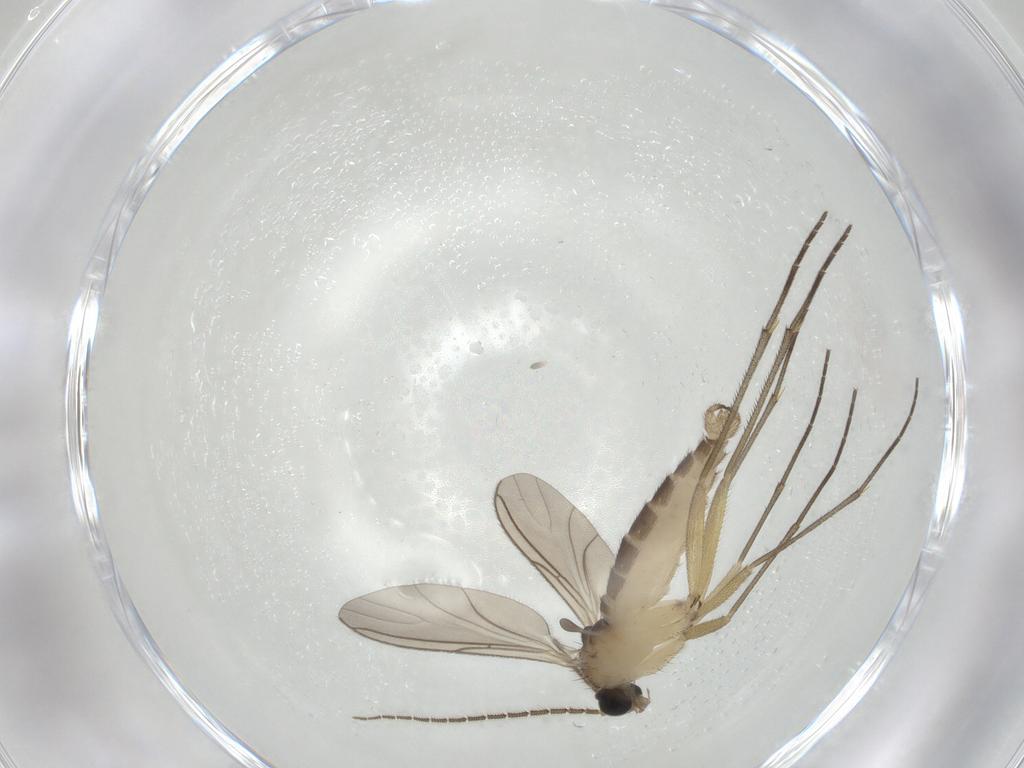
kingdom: Animalia
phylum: Arthropoda
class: Insecta
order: Diptera
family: Sciaridae
